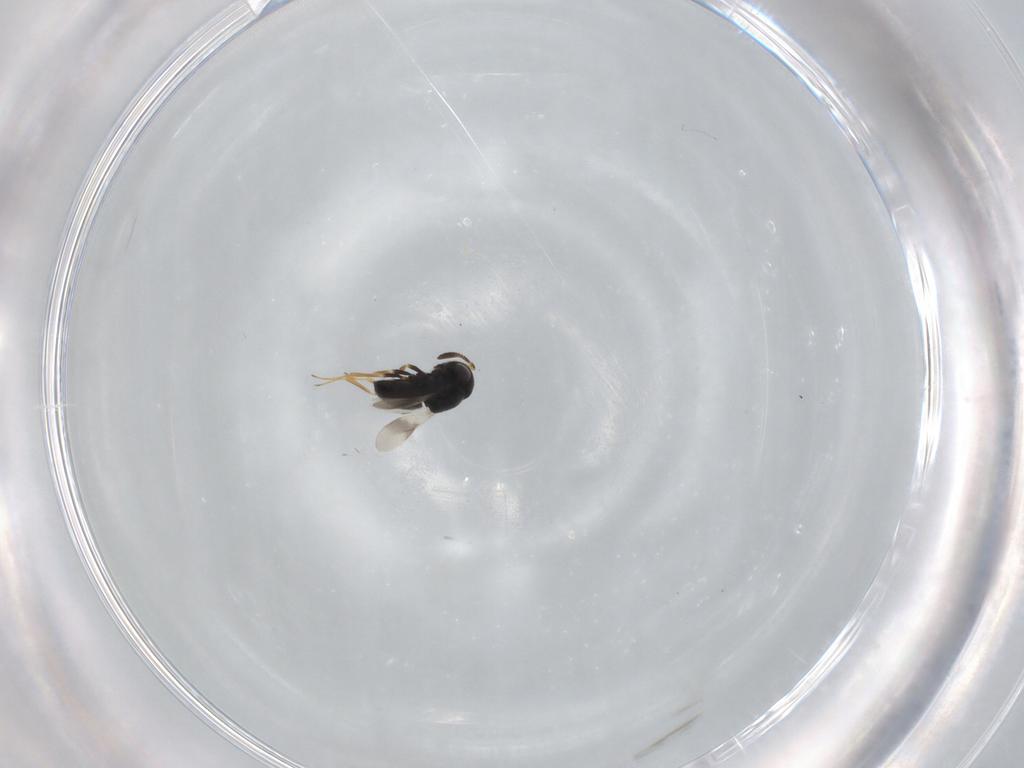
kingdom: Animalia
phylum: Arthropoda
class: Insecta
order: Hymenoptera
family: Scelionidae
